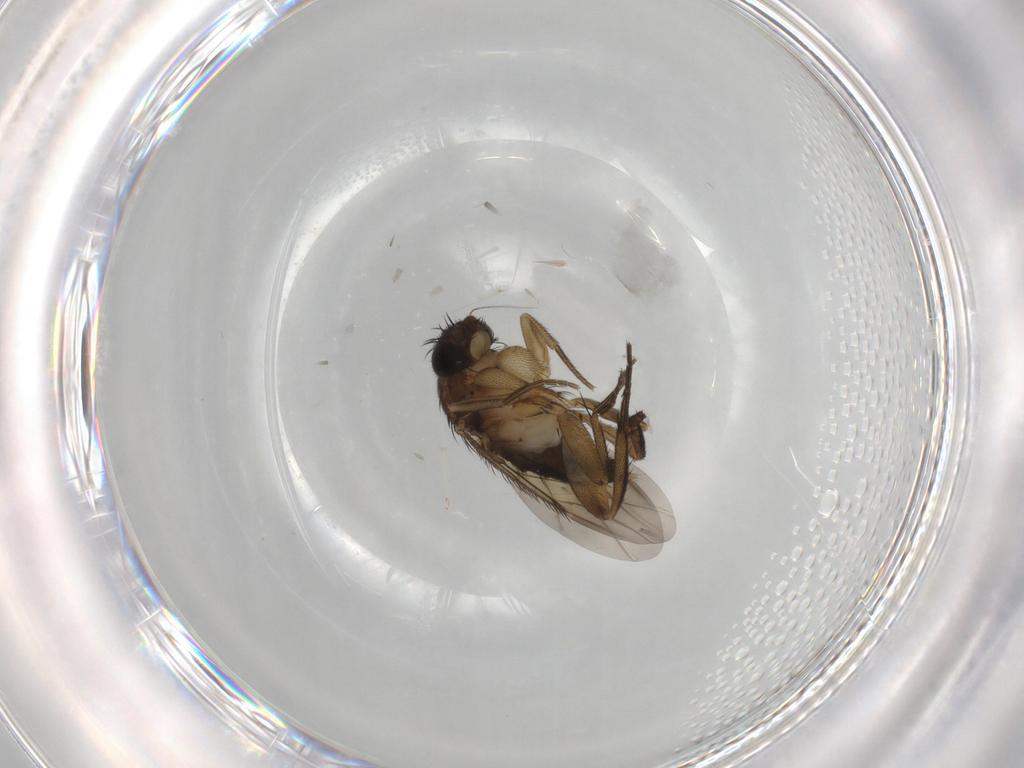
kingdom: Animalia
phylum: Arthropoda
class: Insecta
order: Diptera
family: Phoridae
